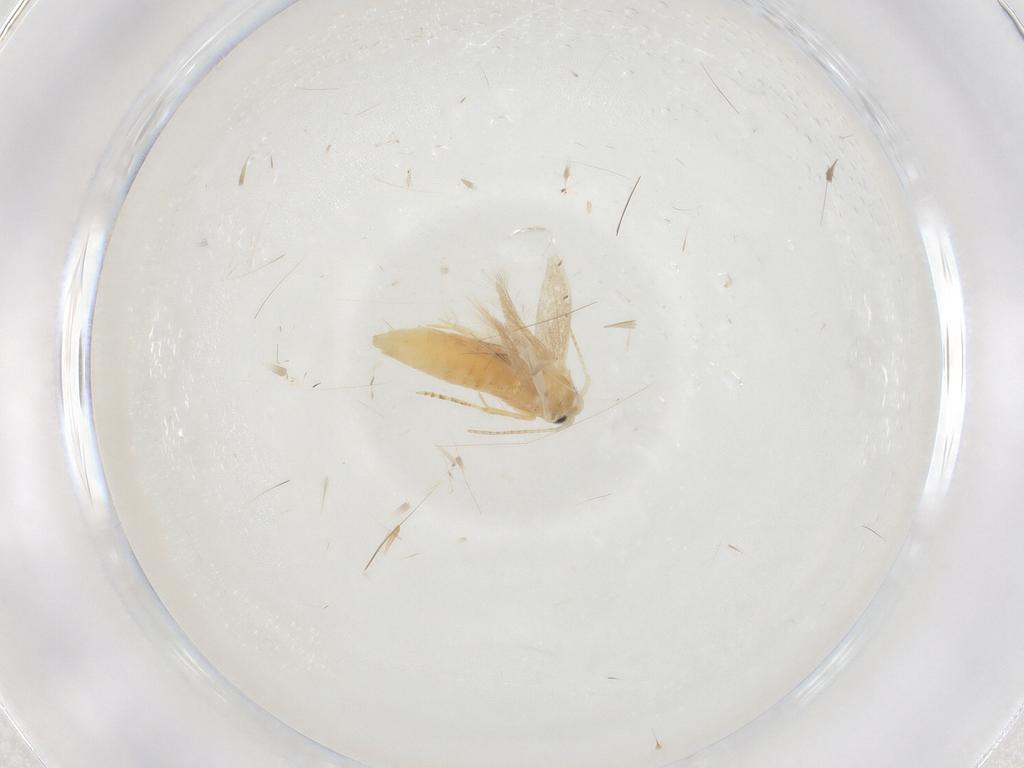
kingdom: Animalia
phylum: Arthropoda
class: Insecta
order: Lepidoptera
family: Depressariidae
